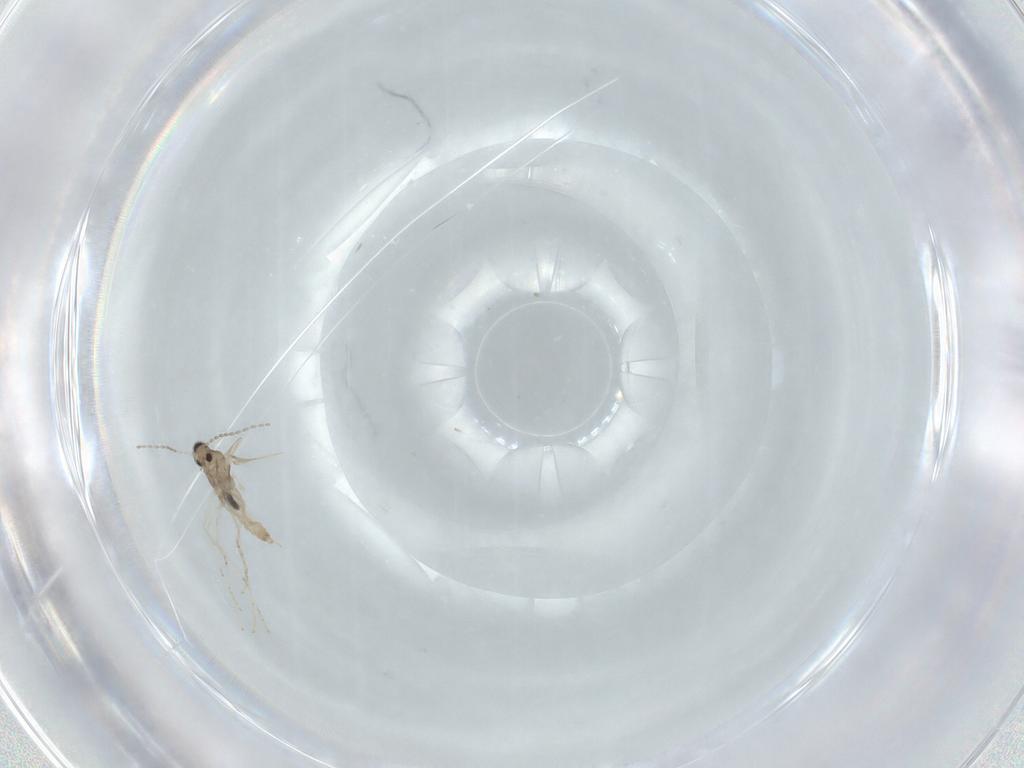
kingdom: Animalia
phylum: Arthropoda
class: Insecta
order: Diptera
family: Cecidomyiidae
